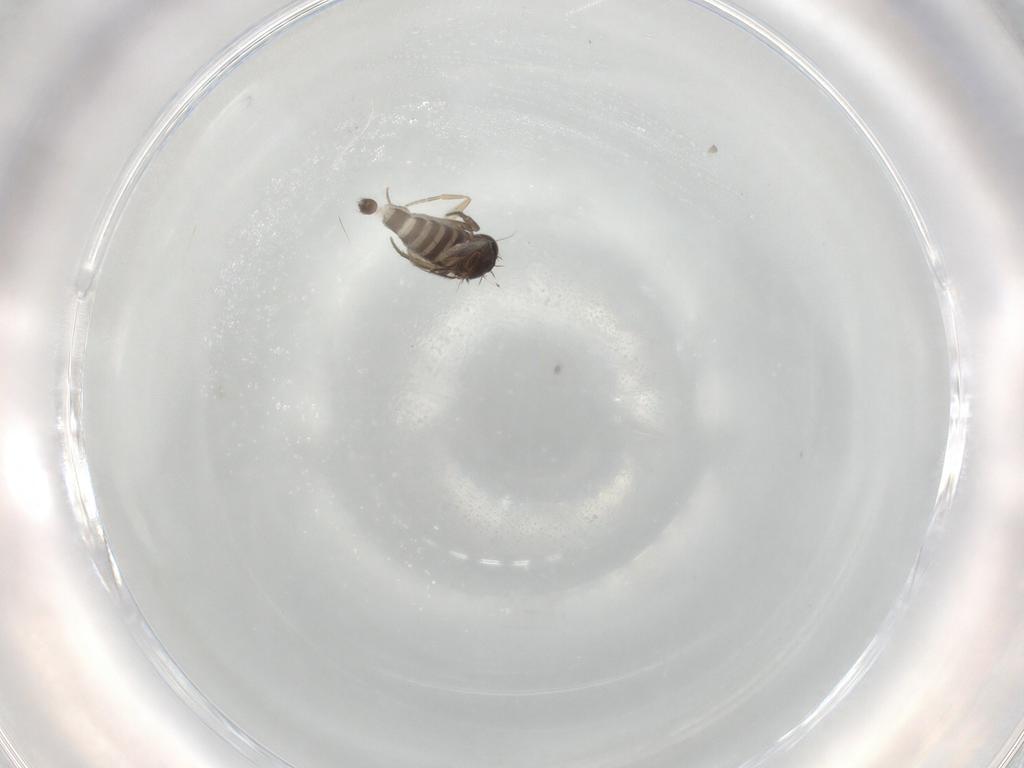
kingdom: Animalia
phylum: Arthropoda
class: Insecta
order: Diptera
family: Phoridae
